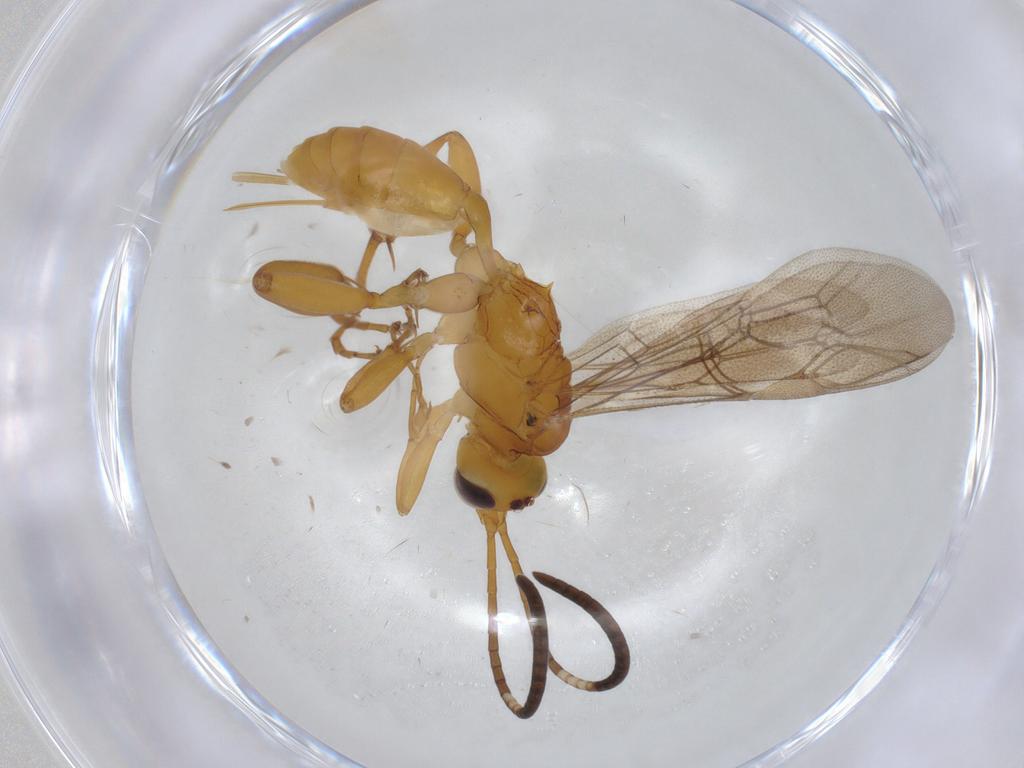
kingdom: Animalia
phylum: Arthropoda
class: Insecta
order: Hymenoptera
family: Ichneumonidae
